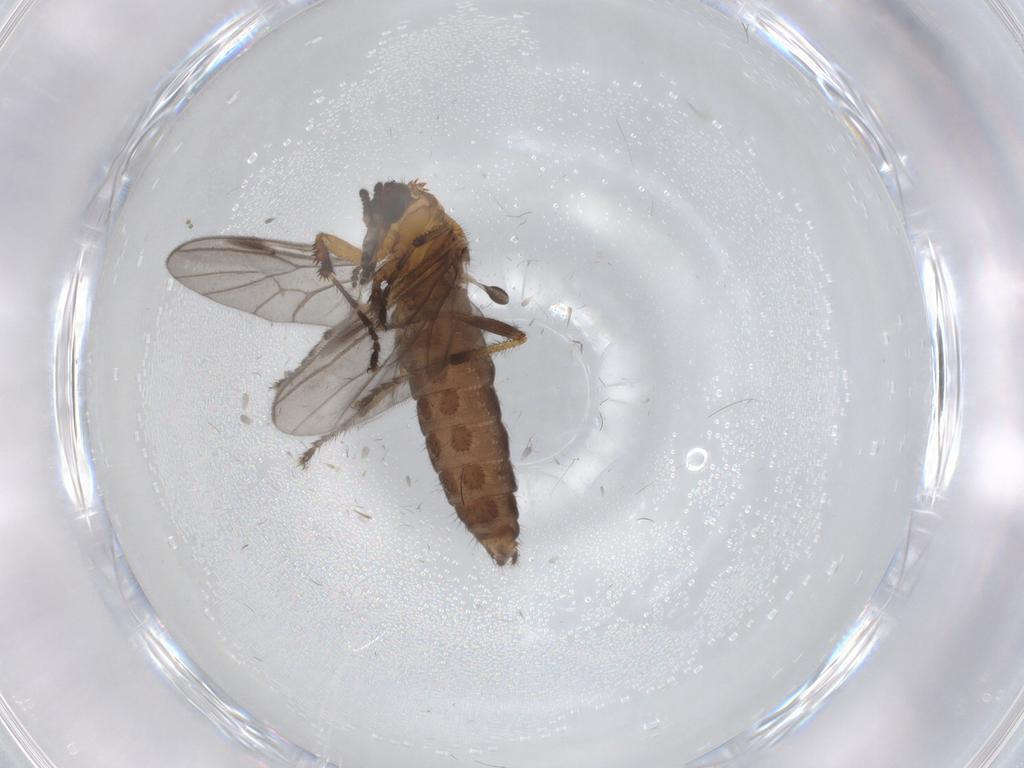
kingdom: Animalia
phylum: Arthropoda
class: Insecta
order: Diptera
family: Bibionidae
